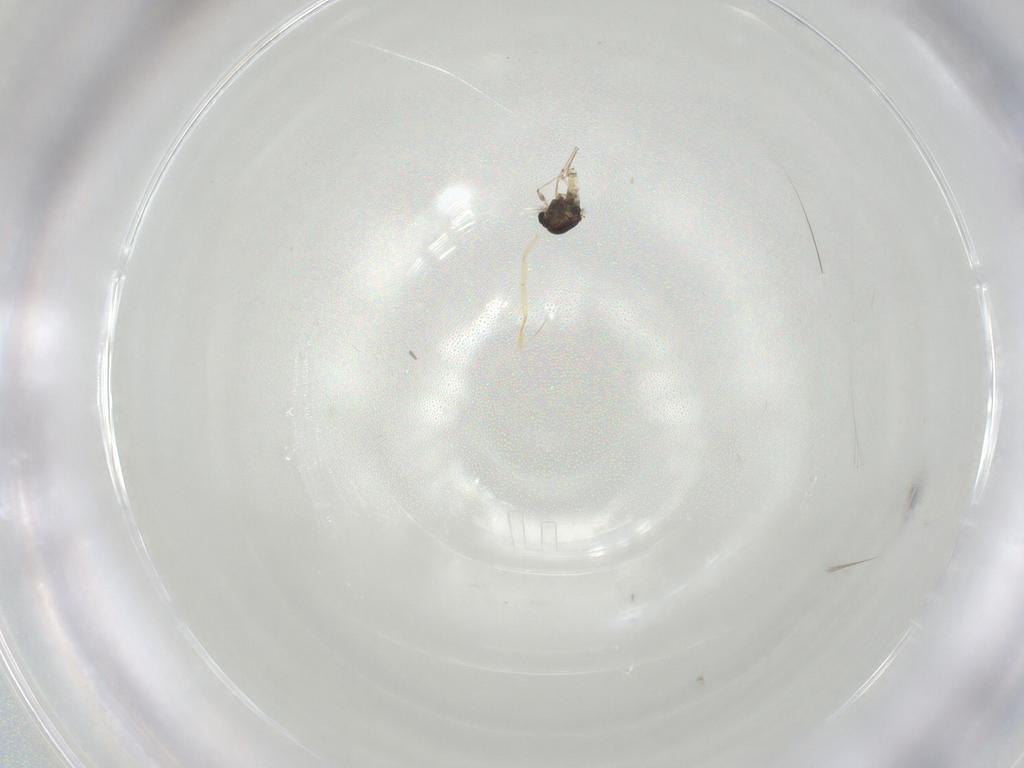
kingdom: Animalia
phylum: Arthropoda
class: Insecta
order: Diptera
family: Chironomidae
